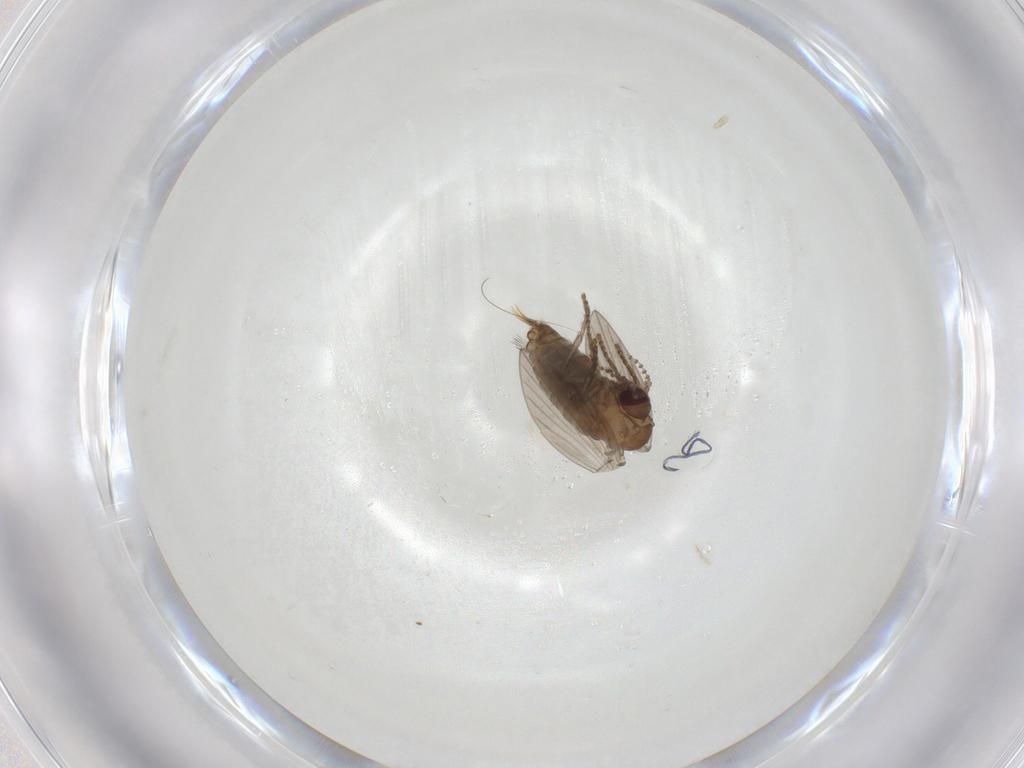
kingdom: Animalia
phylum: Arthropoda
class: Insecta
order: Diptera
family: Psychodidae
